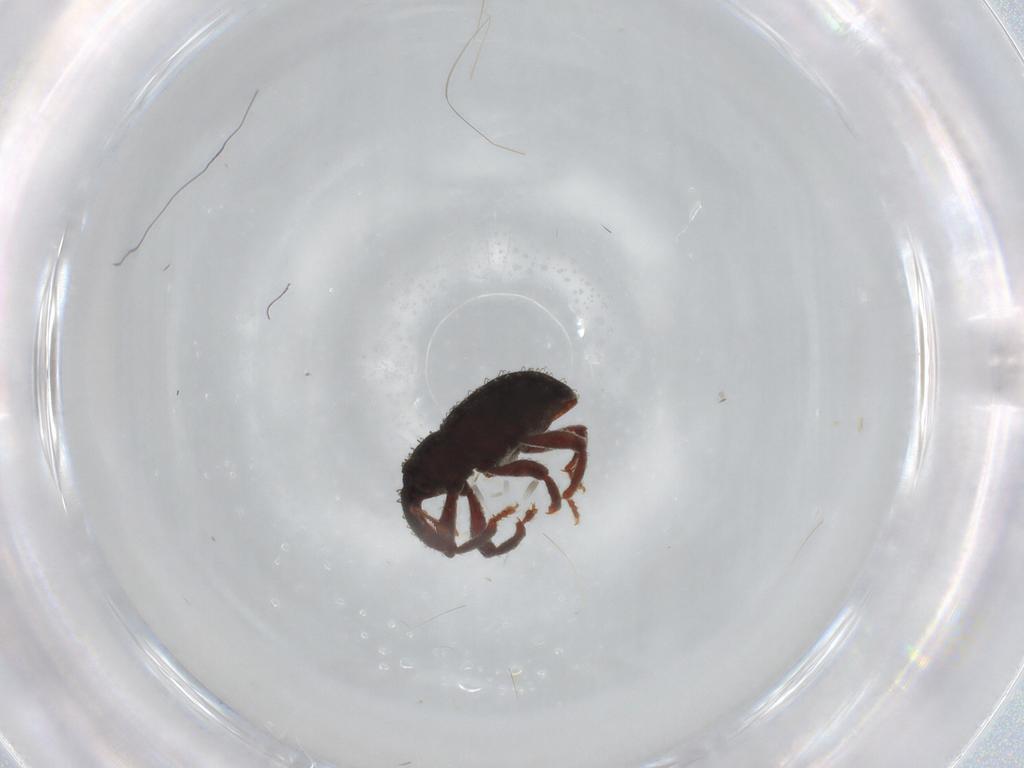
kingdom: Animalia
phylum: Arthropoda
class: Insecta
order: Coleoptera
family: Curculionidae
